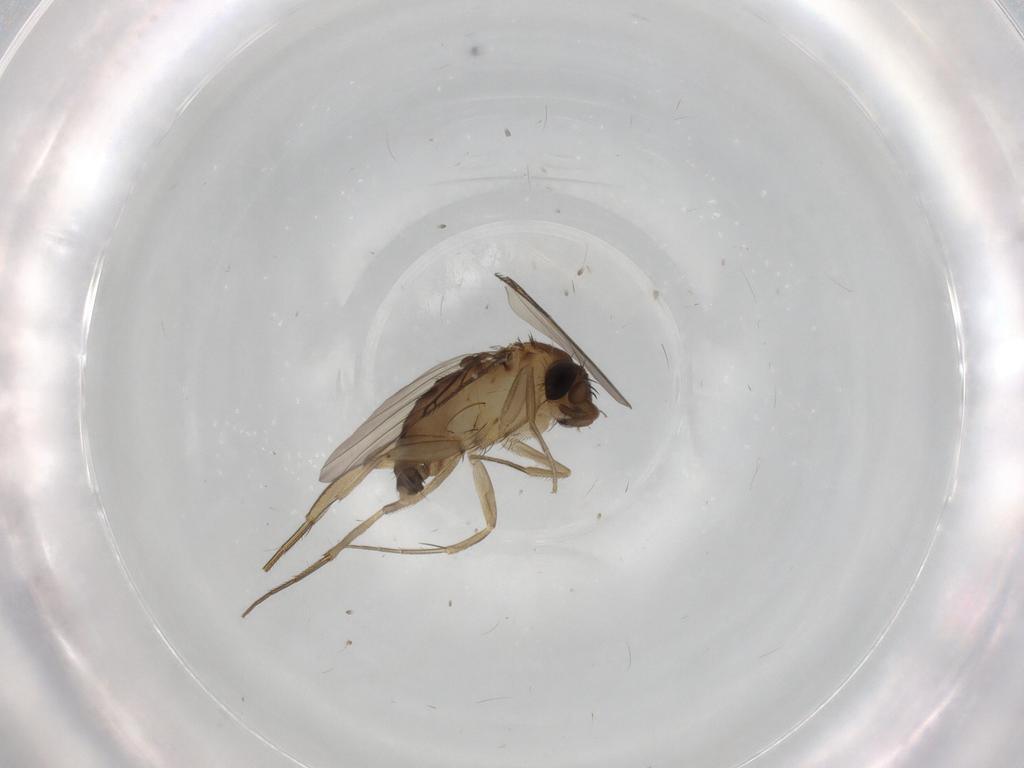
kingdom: Animalia
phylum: Arthropoda
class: Insecta
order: Diptera
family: Phoridae
